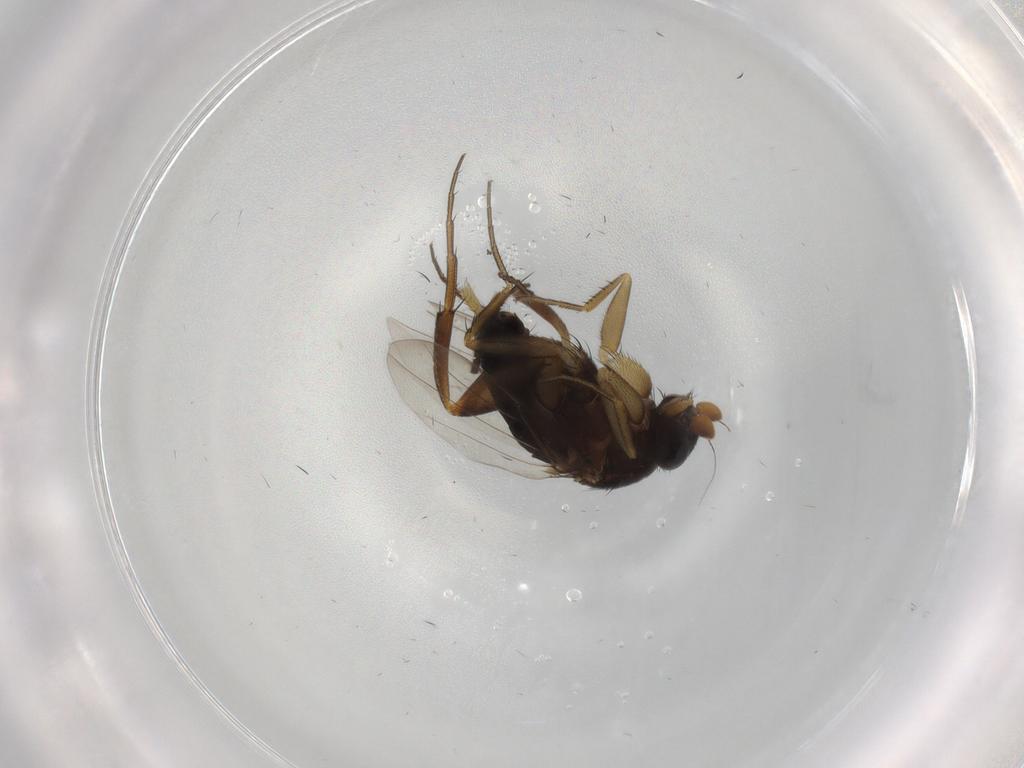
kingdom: Animalia
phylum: Arthropoda
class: Insecta
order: Diptera
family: Phoridae
